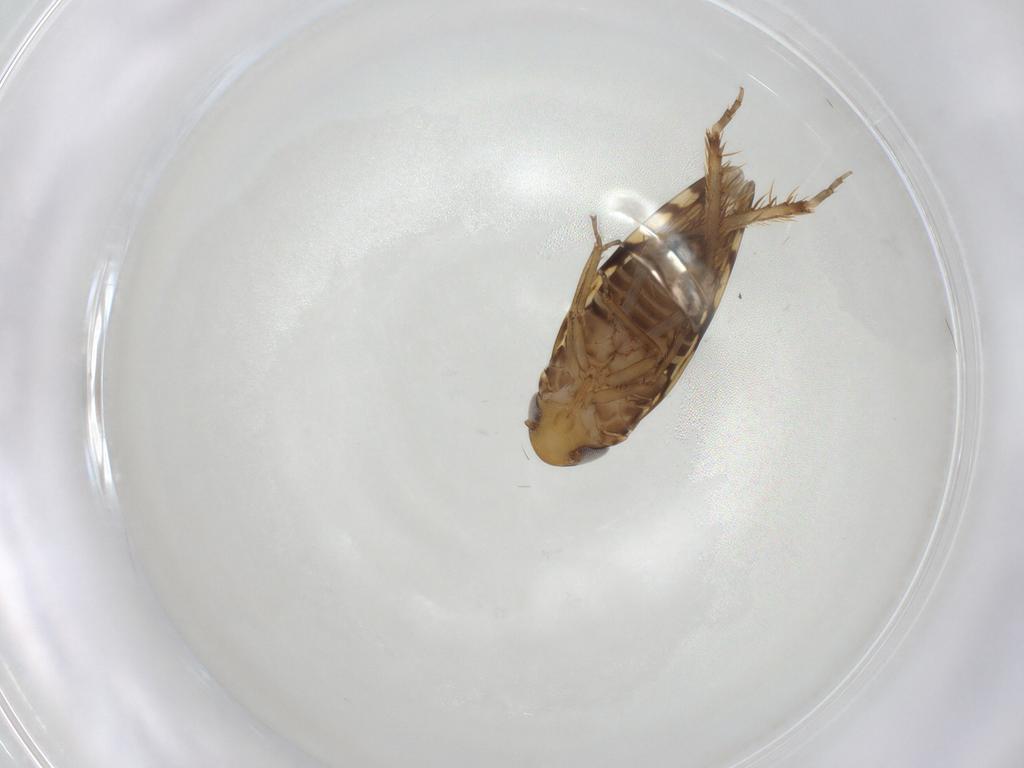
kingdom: Animalia
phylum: Arthropoda
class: Insecta
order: Hemiptera
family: Cicadellidae
